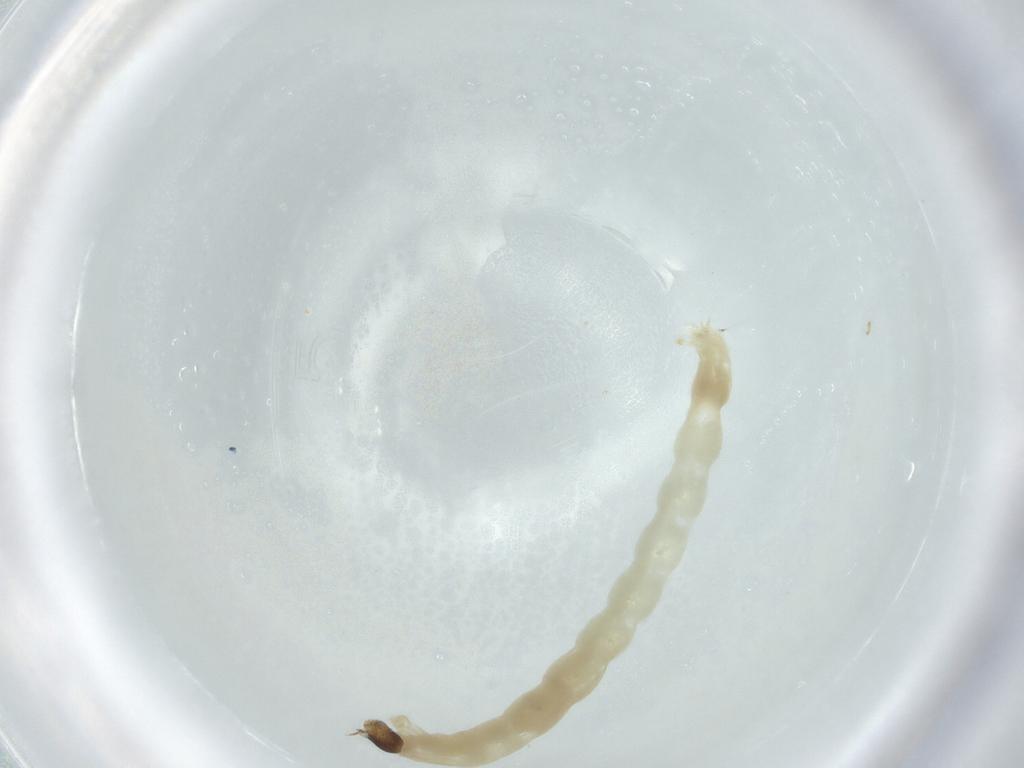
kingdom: Animalia
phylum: Arthropoda
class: Insecta
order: Diptera
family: Chironomidae
